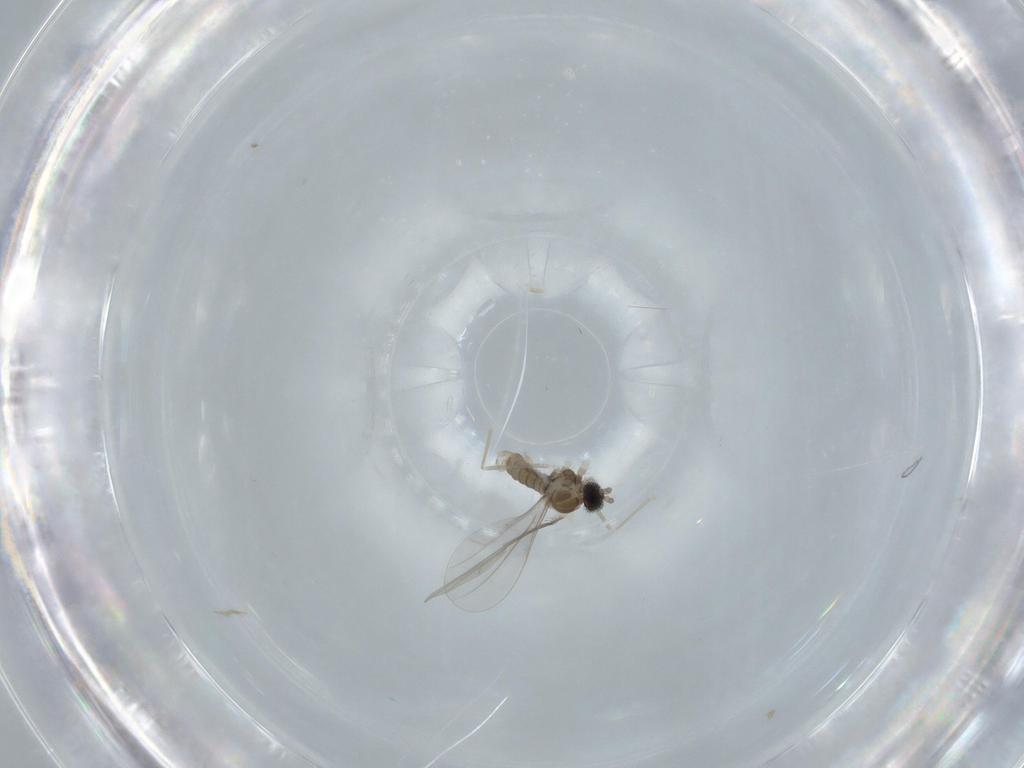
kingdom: Animalia
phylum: Arthropoda
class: Insecta
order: Diptera
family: Cecidomyiidae
